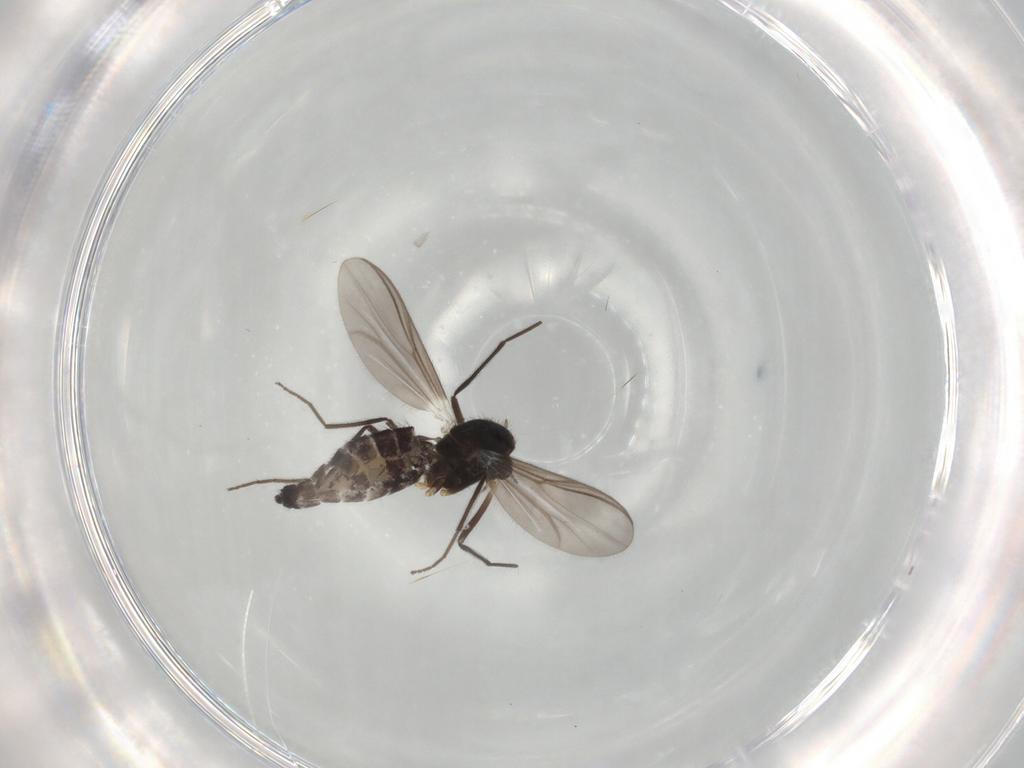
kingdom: Animalia
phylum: Arthropoda
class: Insecta
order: Diptera
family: Chironomidae
